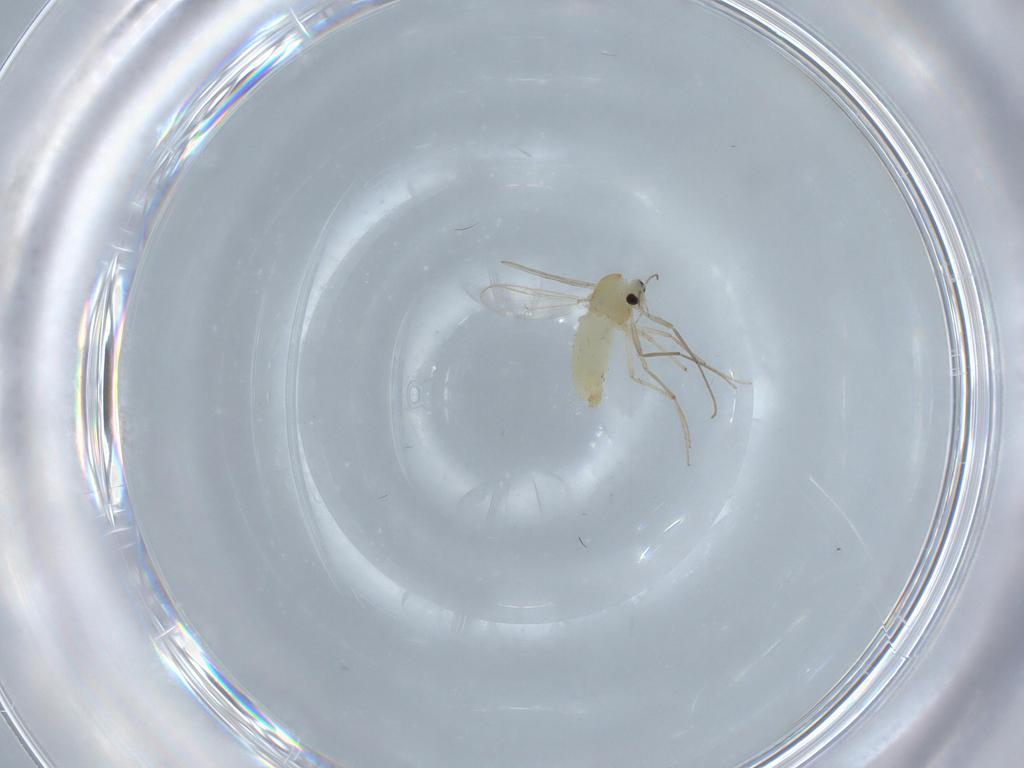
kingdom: Animalia
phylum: Arthropoda
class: Insecta
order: Diptera
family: Chironomidae
